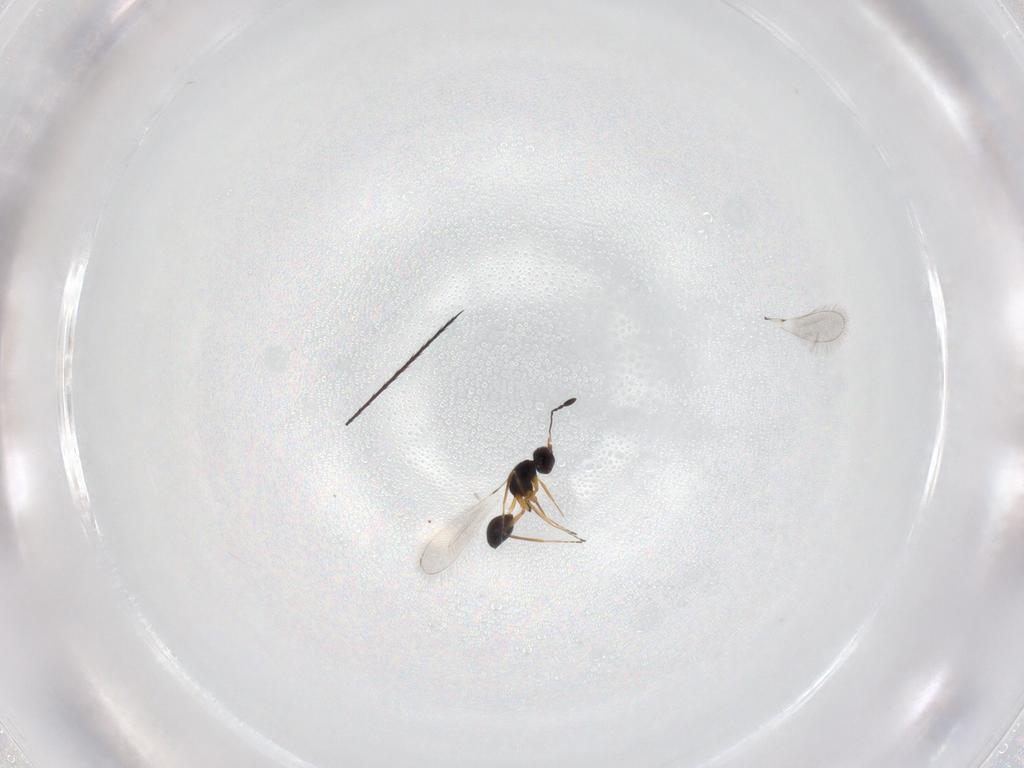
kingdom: Animalia
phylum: Arthropoda
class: Insecta
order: Hymenoptera
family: Mymaridae
